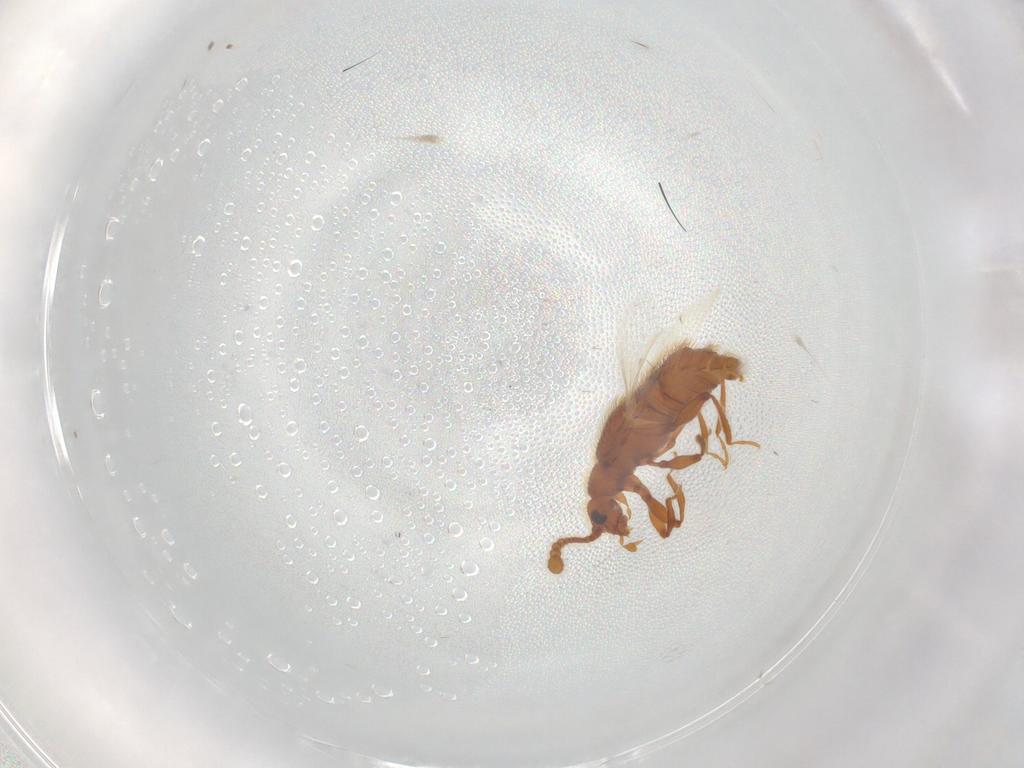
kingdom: Animalia
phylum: Arthropoda
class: Insecta
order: Coleoptera
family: Staphylinidae
